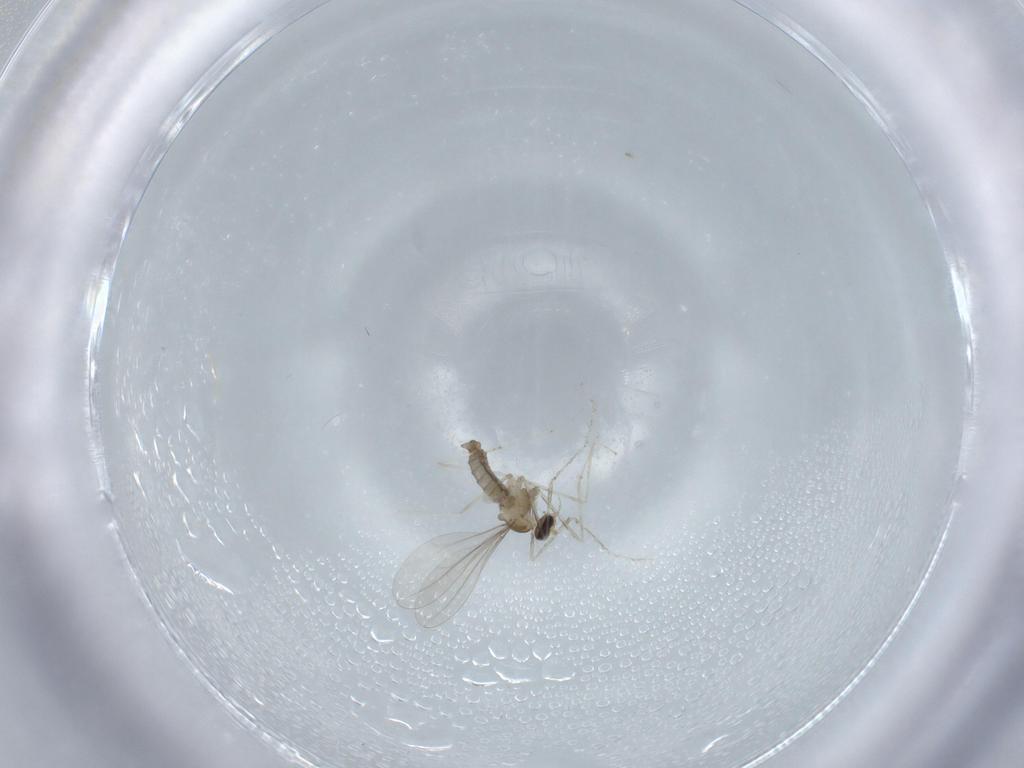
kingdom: Animalia
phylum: Arthropoda
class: Insecta
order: Diptera
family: Cecidomyiidae
